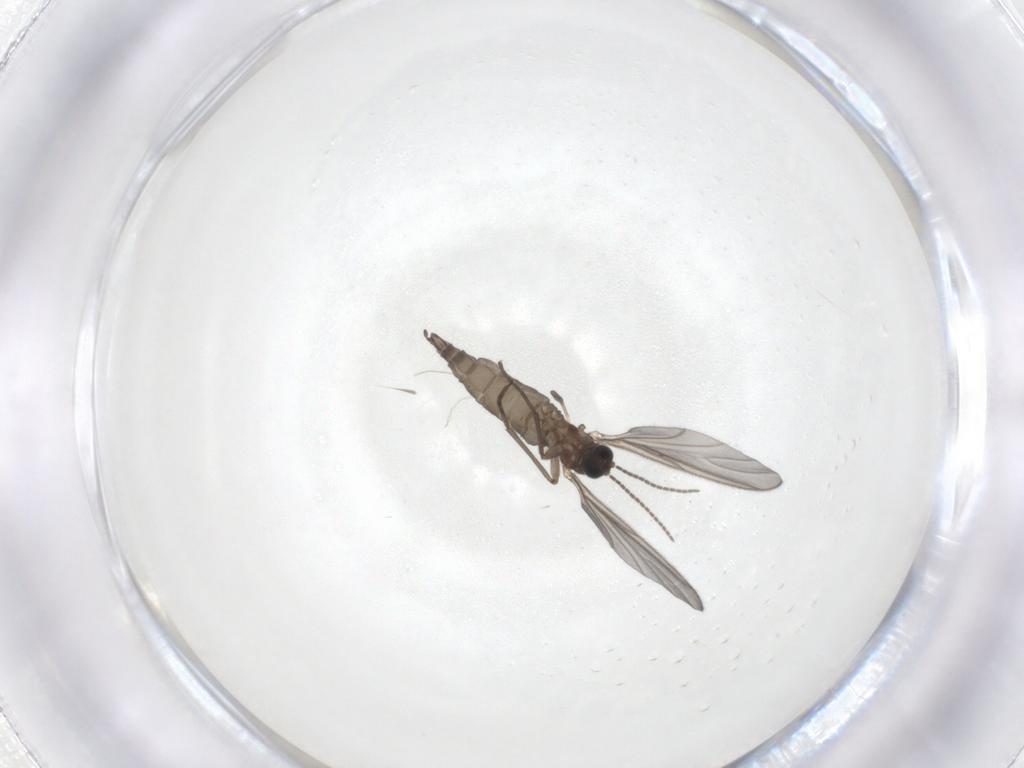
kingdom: Animalia
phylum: Arthropoda
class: Insecta
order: Diptera
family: Sciaridae
